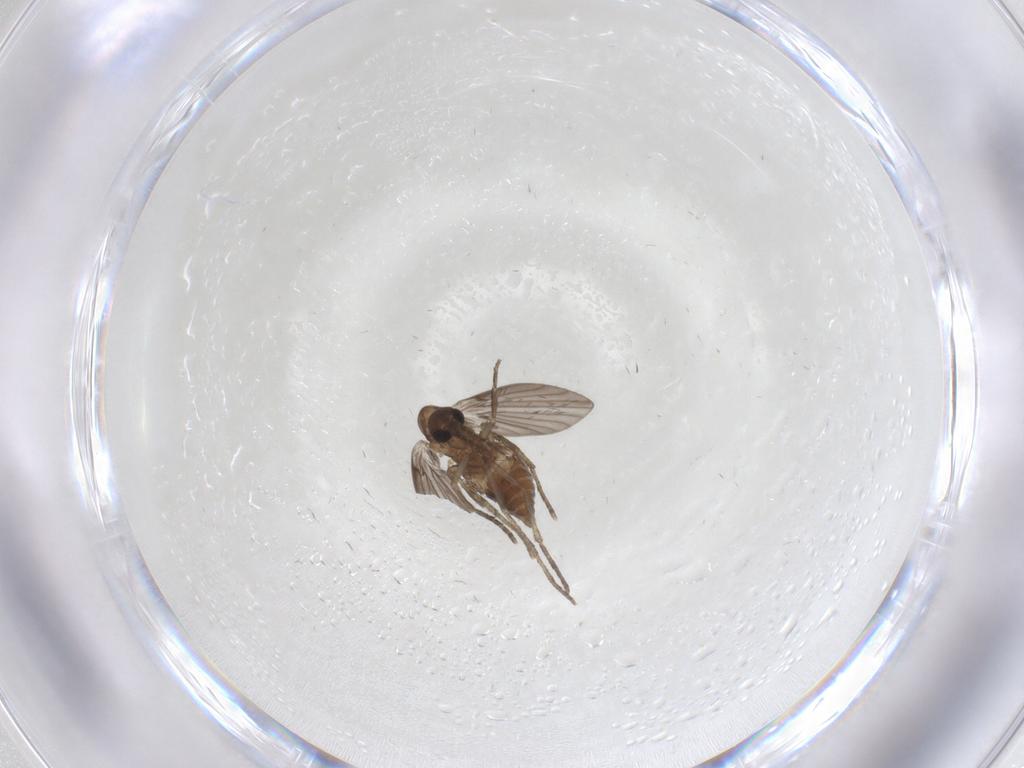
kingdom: Animalia
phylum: Arthropoda
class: Insecta
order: Diptera
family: Psychodidae
